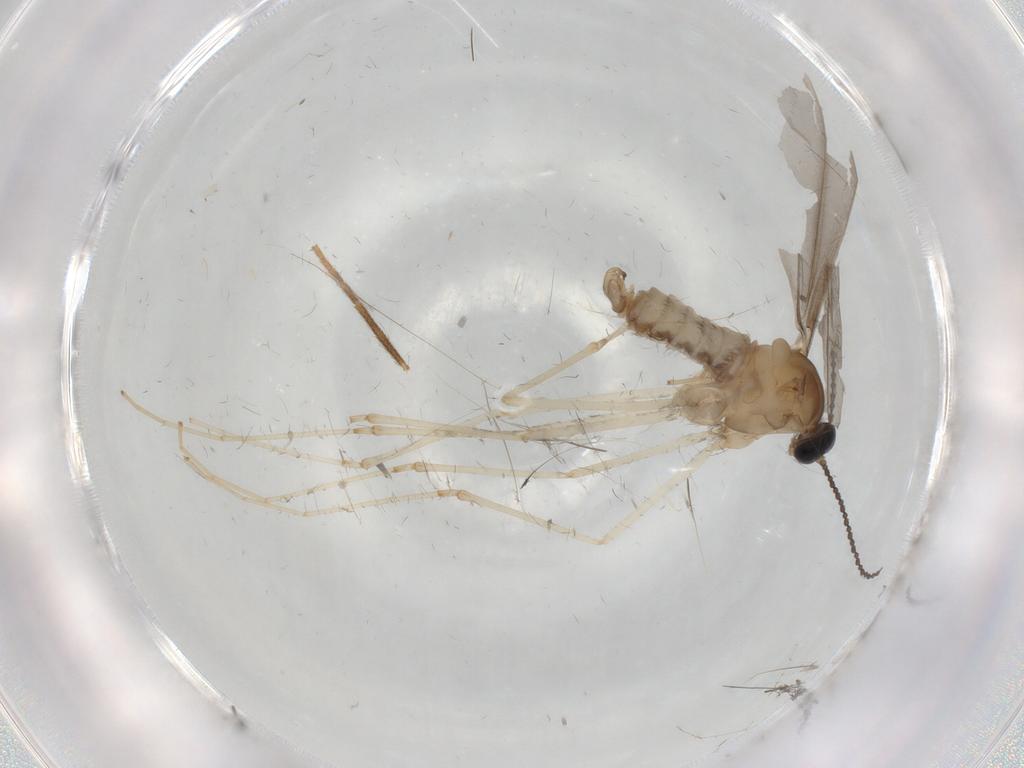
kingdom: Animalia
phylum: Arthropoda
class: Insecta
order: Diptera
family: Cecidomyiidae
